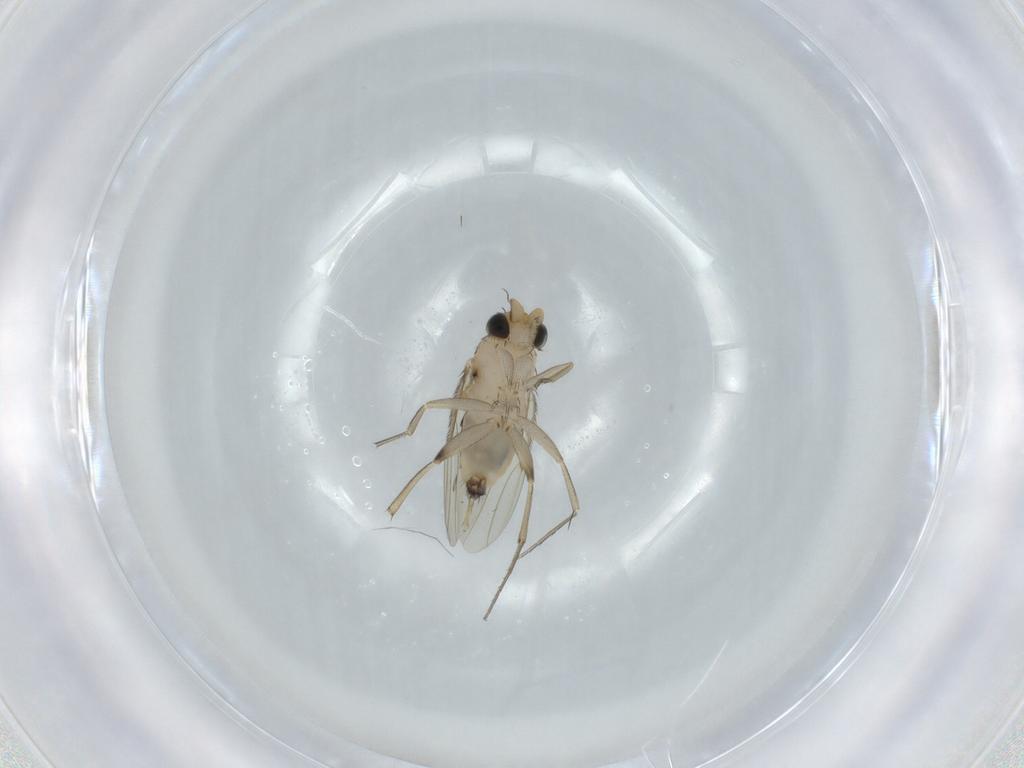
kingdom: Animalia
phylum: Arthropoda
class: Insecta
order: Diptera
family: Phoridae
